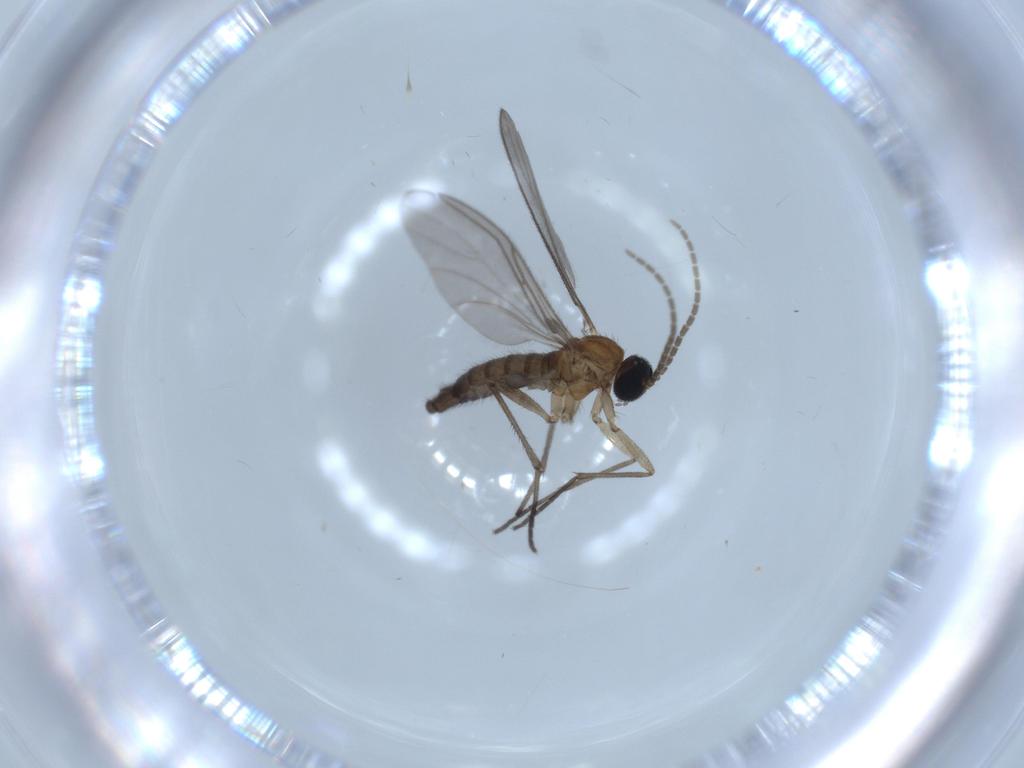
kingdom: Animalia
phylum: Arthropoda
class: Insecta
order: Diptera
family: Sciaridae
